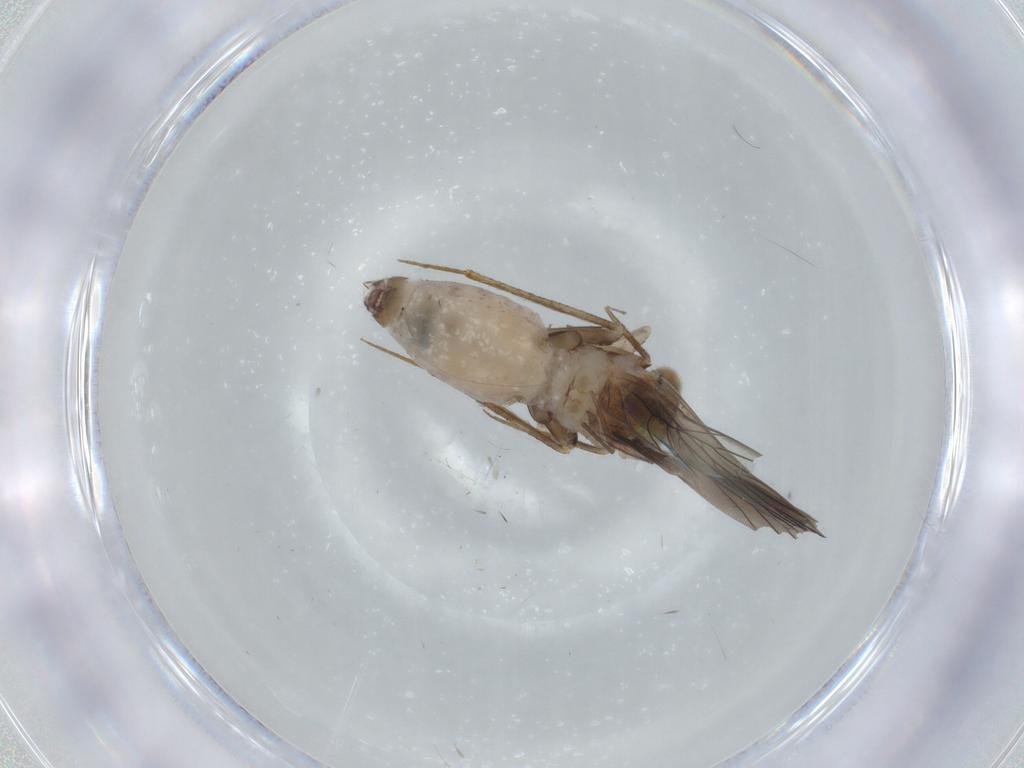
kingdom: Animalia
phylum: Arthropoda
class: Insecta
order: Psocodea
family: Lepidopsocidae
